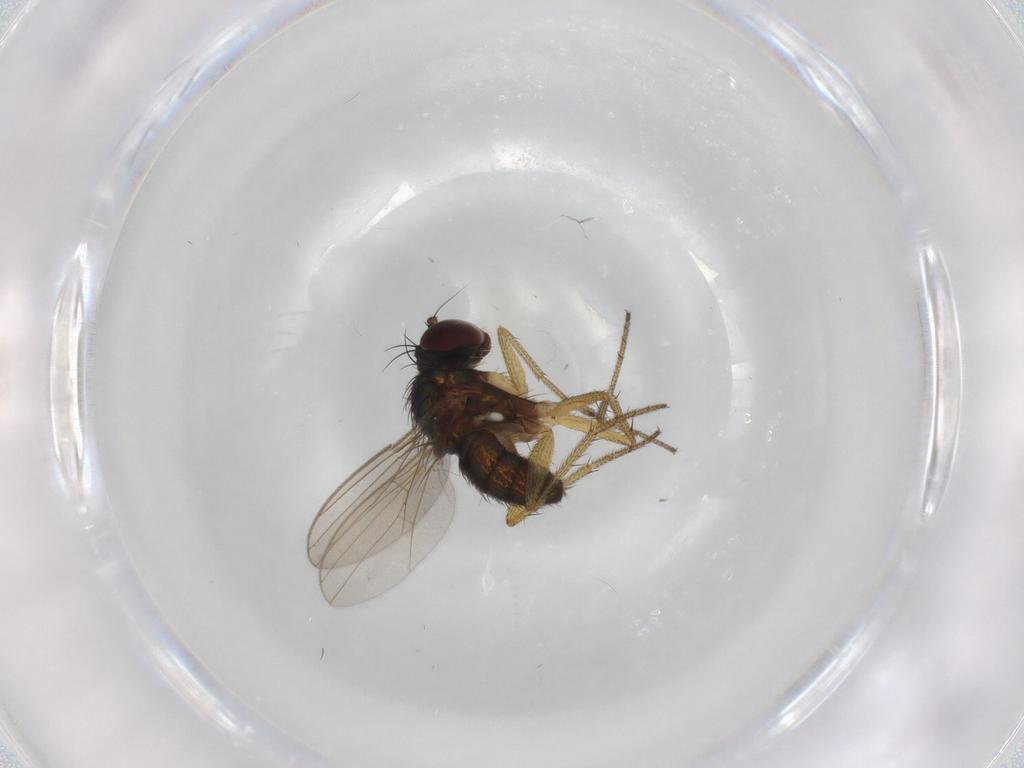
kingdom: Animalia
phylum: Arthropoda
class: Insecta
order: Diptera
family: Dolichopodidae
